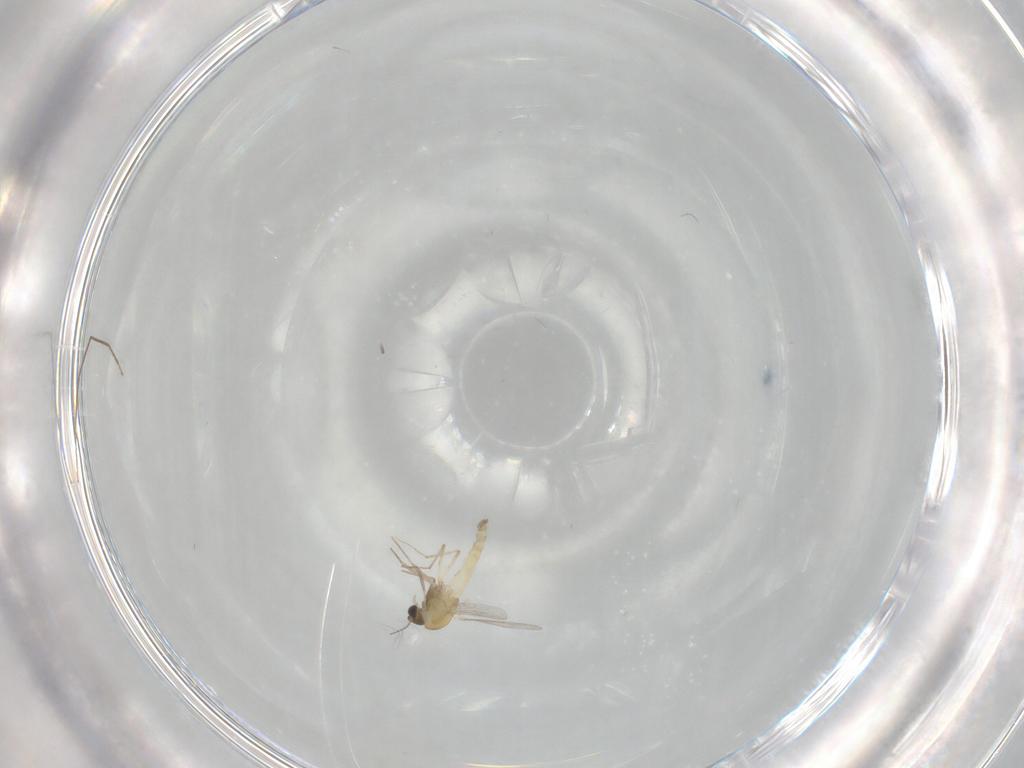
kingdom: Animalia
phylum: Arthropoda
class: Insecta
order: Diptera
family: Chironomidae
